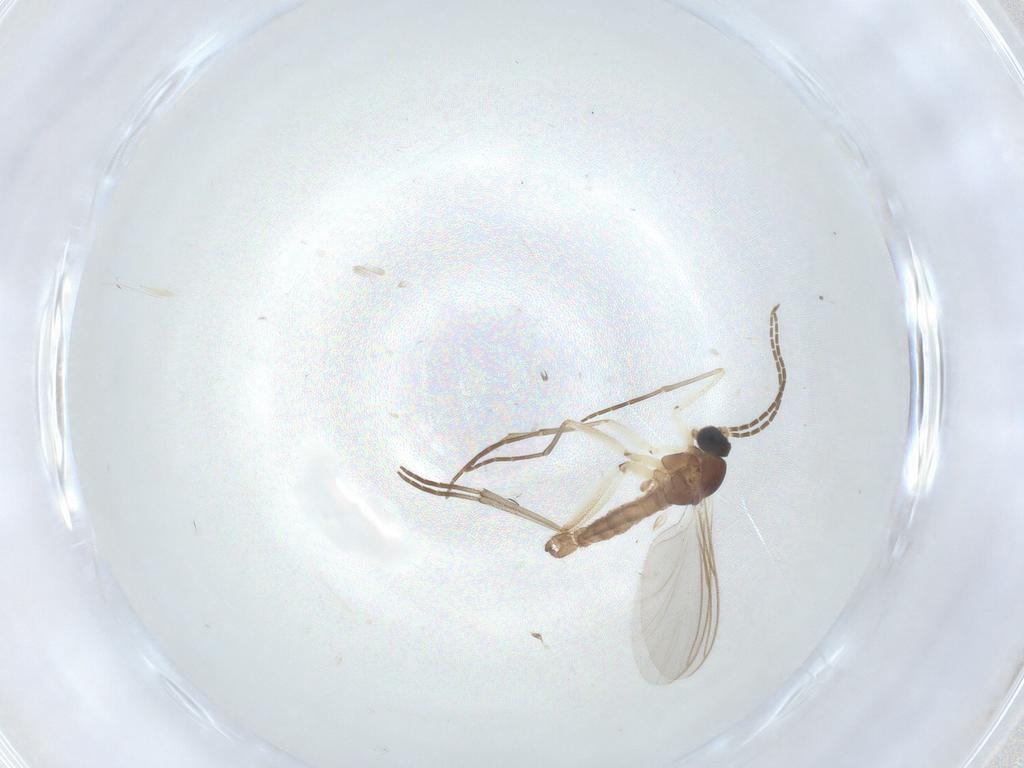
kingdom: Animalia
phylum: Arthropoda
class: Insecta
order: Diptera
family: Sciaridae
